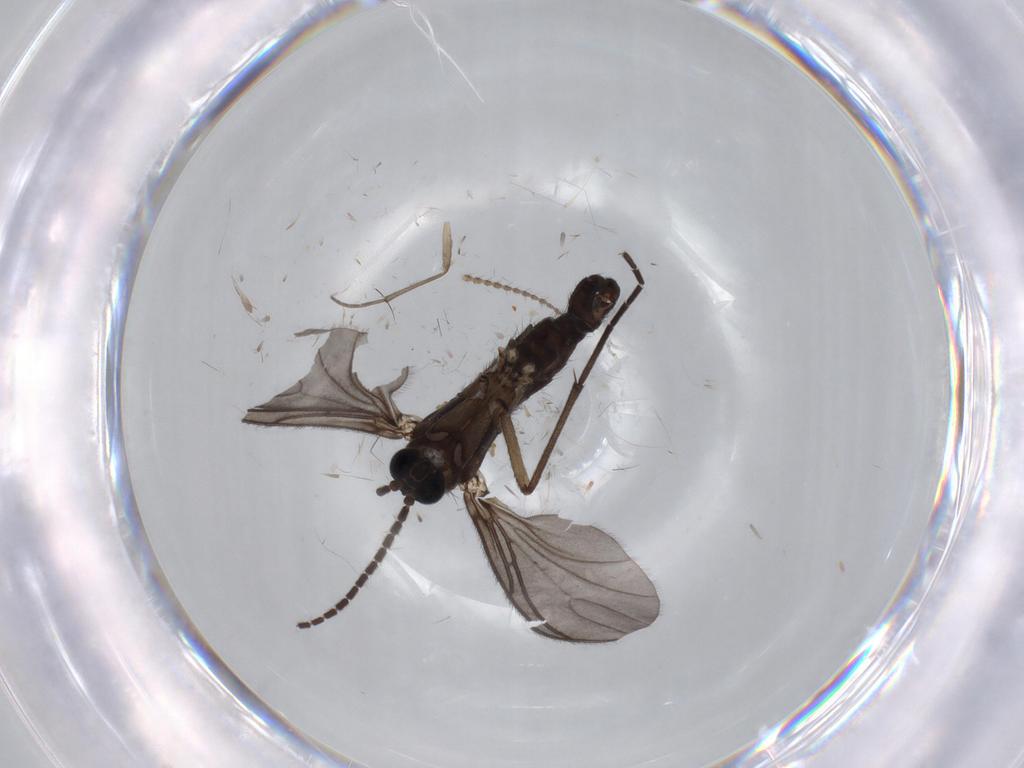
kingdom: Animalia
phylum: Arthropoda
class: Insecta
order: Diptera
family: Sciaridae
